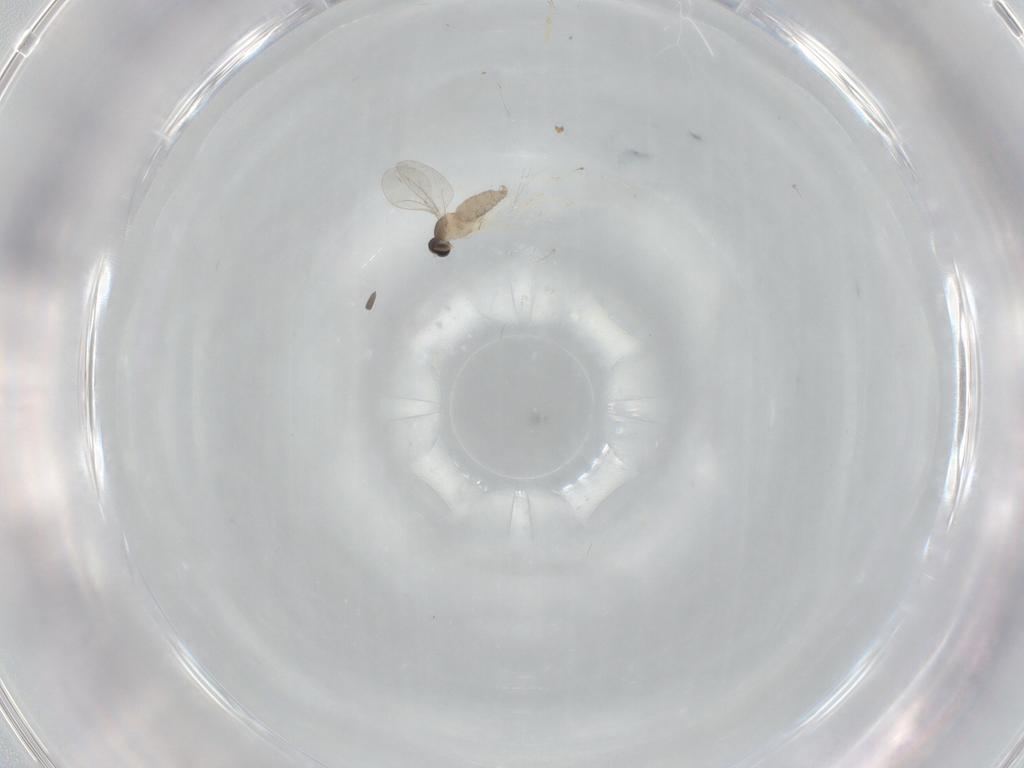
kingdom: Animalia
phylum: Arthropoda
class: Insecta
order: Diptera
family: Cecidomyiidae
